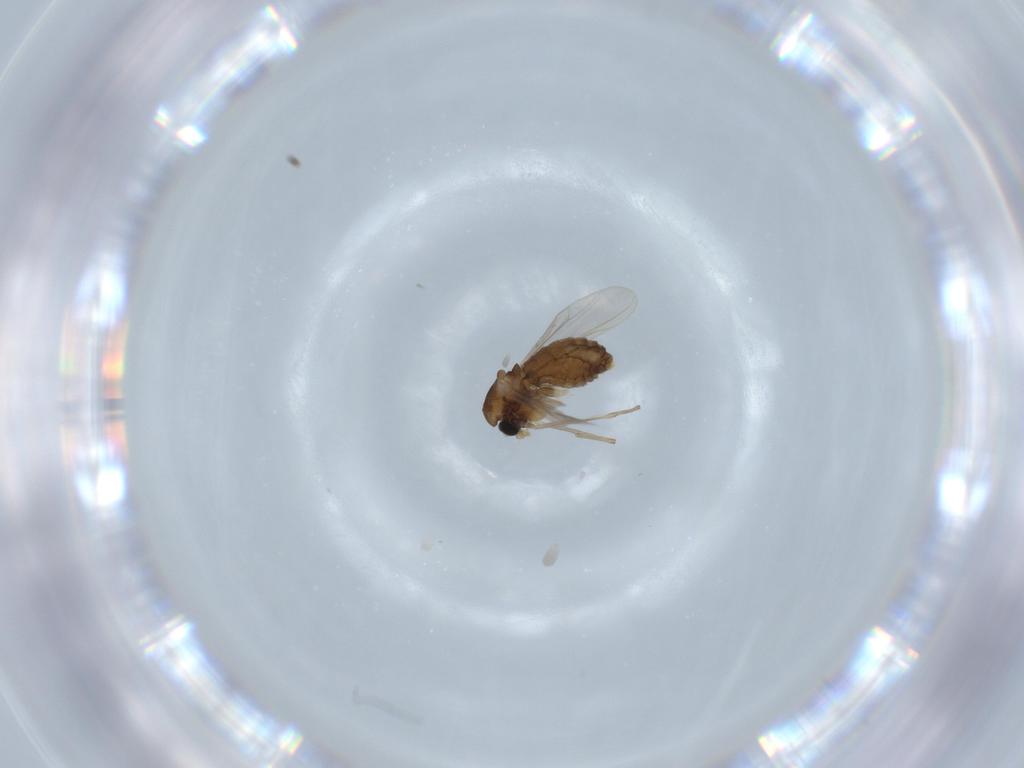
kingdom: Animalia
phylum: Arthropoda
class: Insecta
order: Diptera
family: Chironomidae
